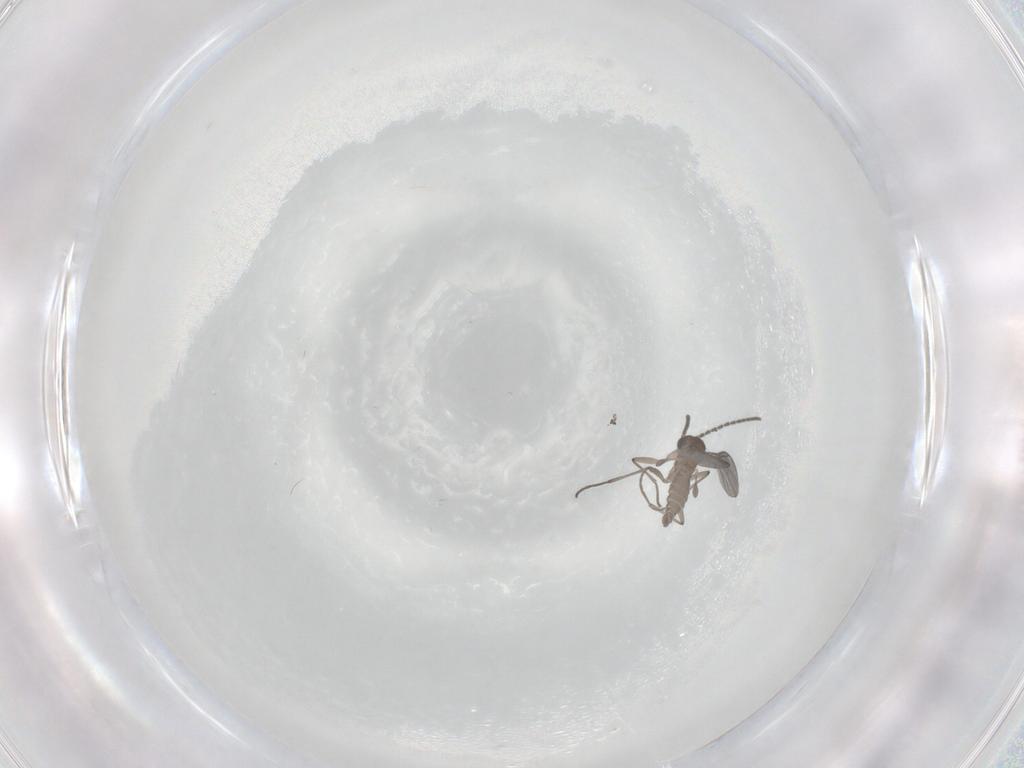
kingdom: Animalia
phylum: Arthropoda
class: Insecta
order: Diptera
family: Sciaridae
